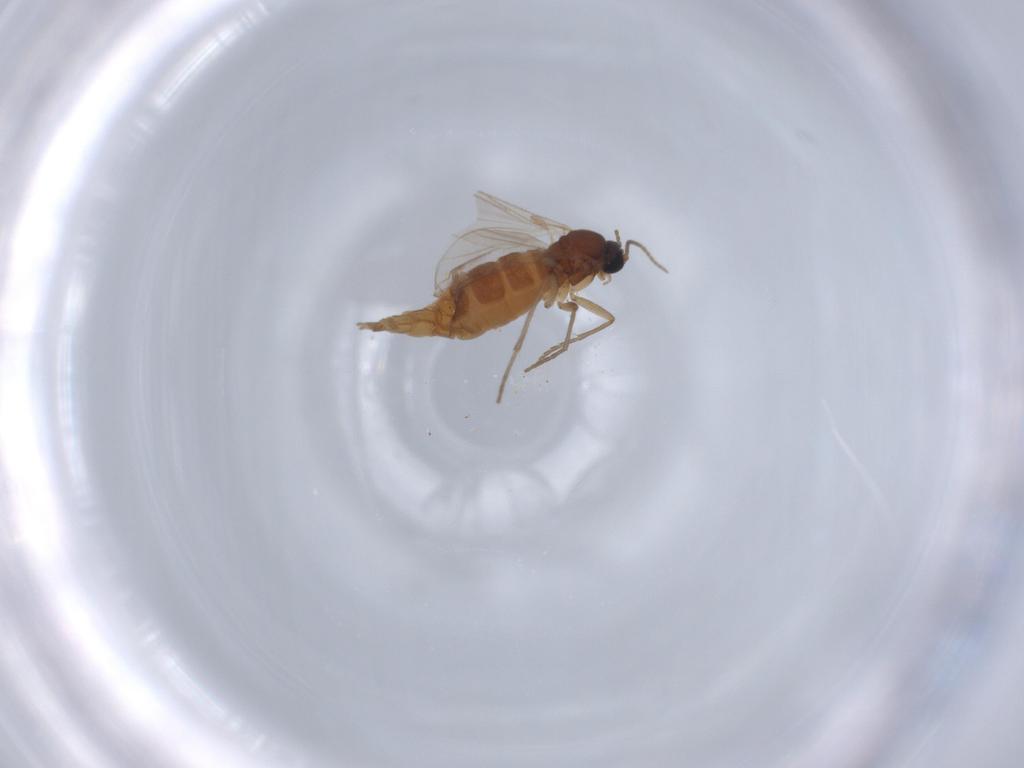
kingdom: Animalia
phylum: Arthropoda
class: Insecta
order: Diptera
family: Sciaridae
